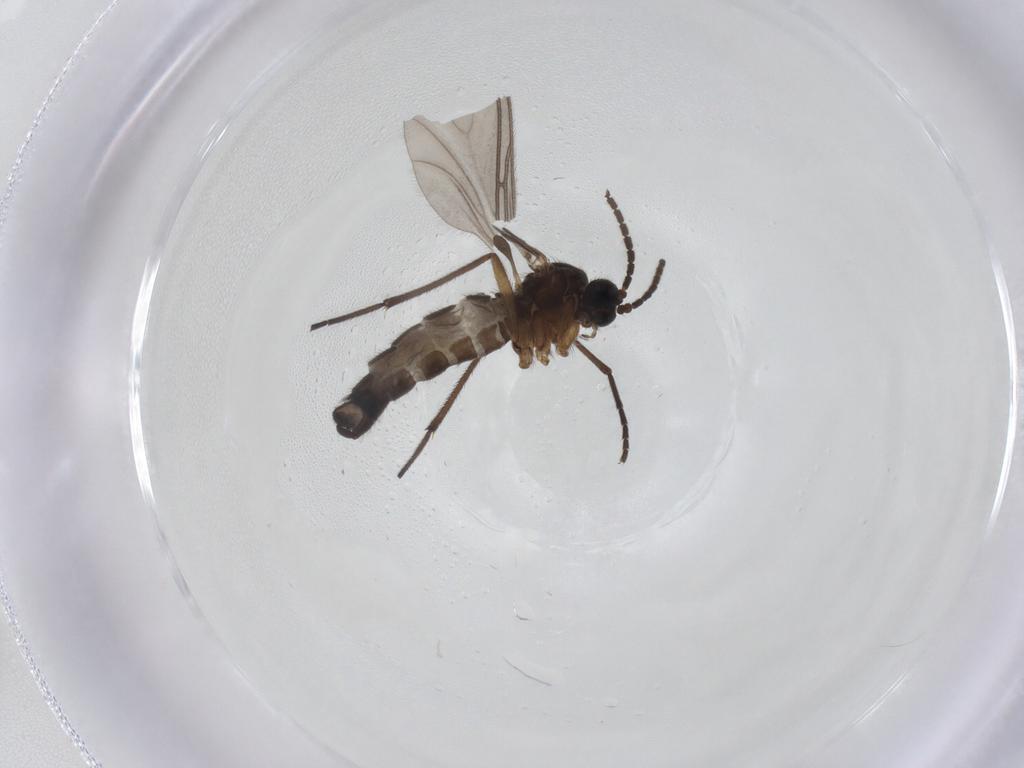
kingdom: Animalia
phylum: Arthropoda
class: Insecta
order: Diptera
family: Sciaridae
